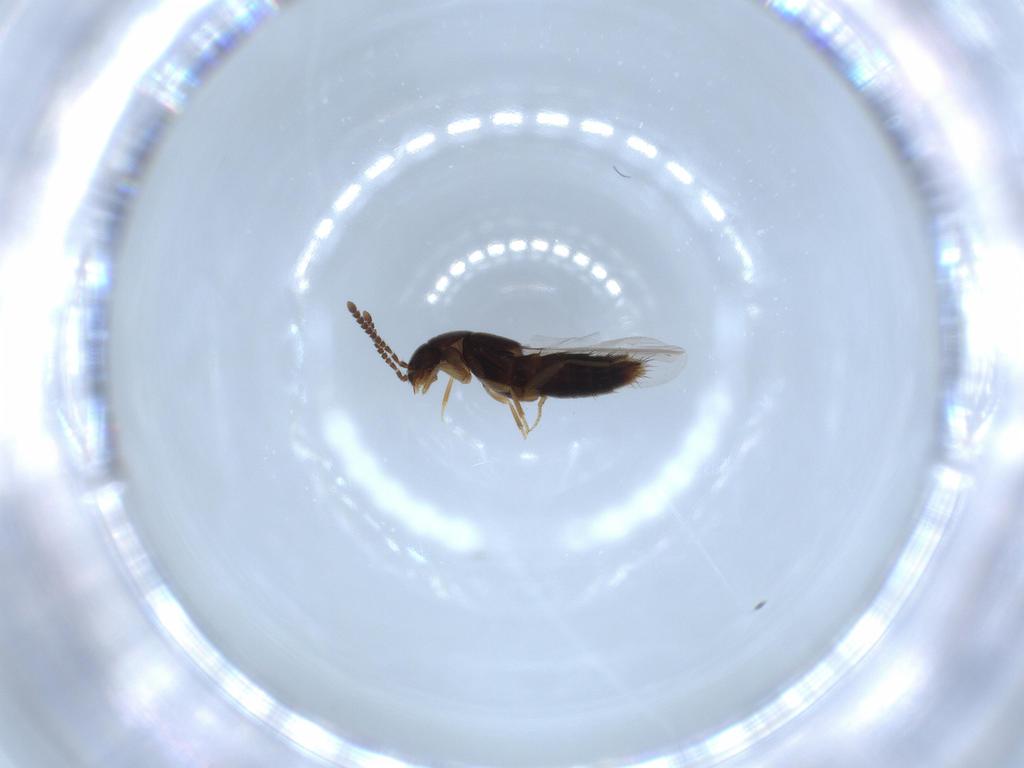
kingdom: Animalia
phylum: Arthropoda
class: Insecta
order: Coleoptera
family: Staphylinidae
